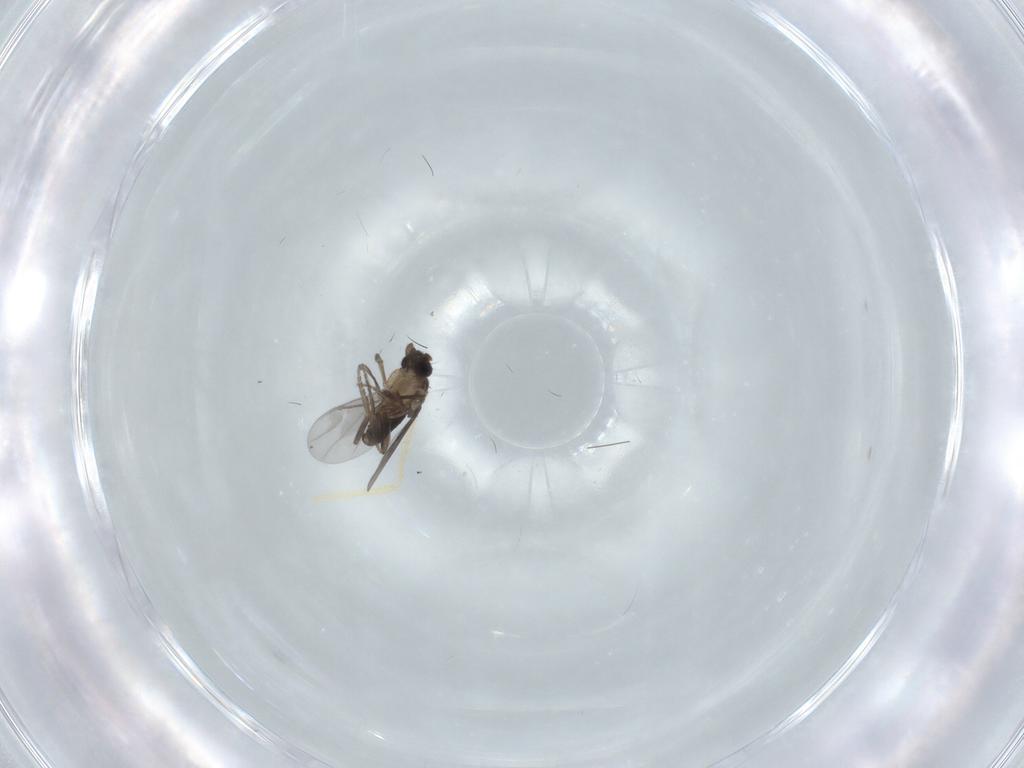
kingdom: Animalia
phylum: Arthropoda
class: Insecta
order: Diptera
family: Chironomidae
